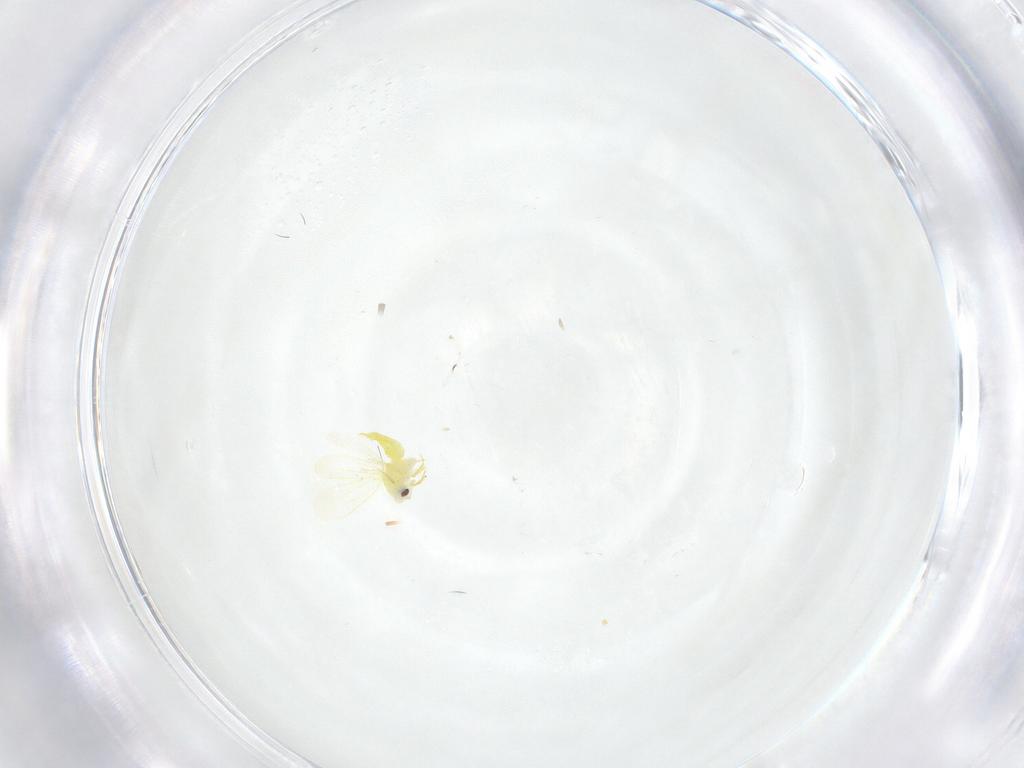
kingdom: Animalia
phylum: Arthropoda
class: Insecta
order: Hemiptera
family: Aleyrodidae
